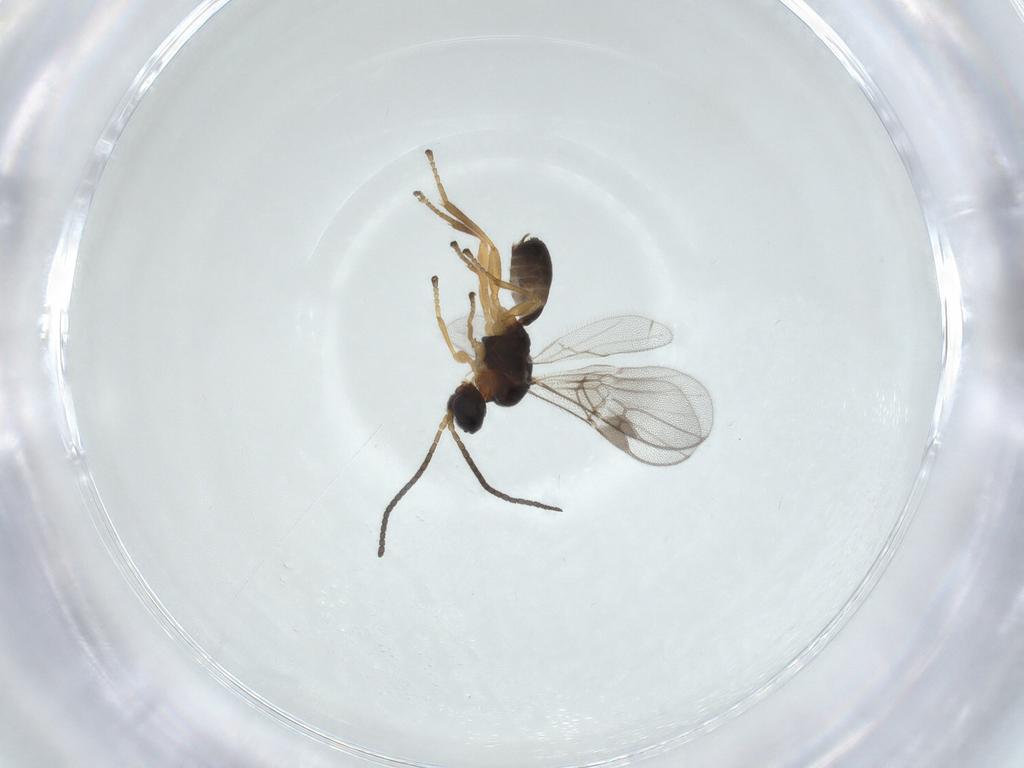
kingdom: Animalia
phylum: Arthropoda
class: Insecta
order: Hymenoptera
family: Braconidae
